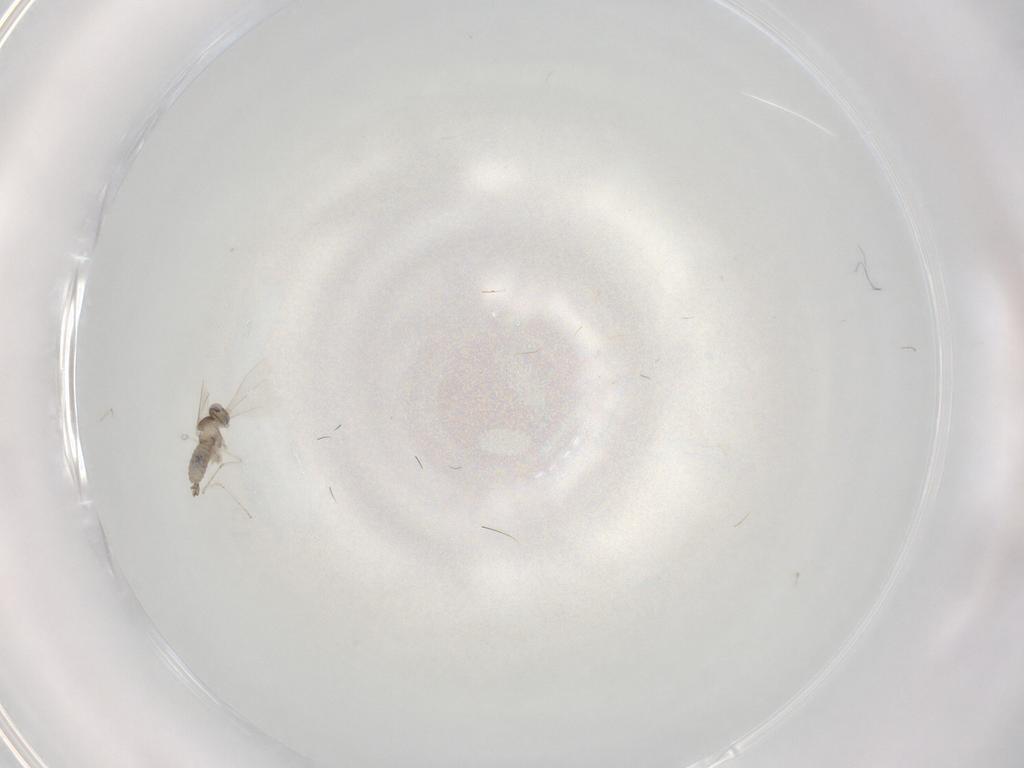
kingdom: Animalia
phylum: Arthropoda
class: Insecta
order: Diptera
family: Cecidomyiidae
